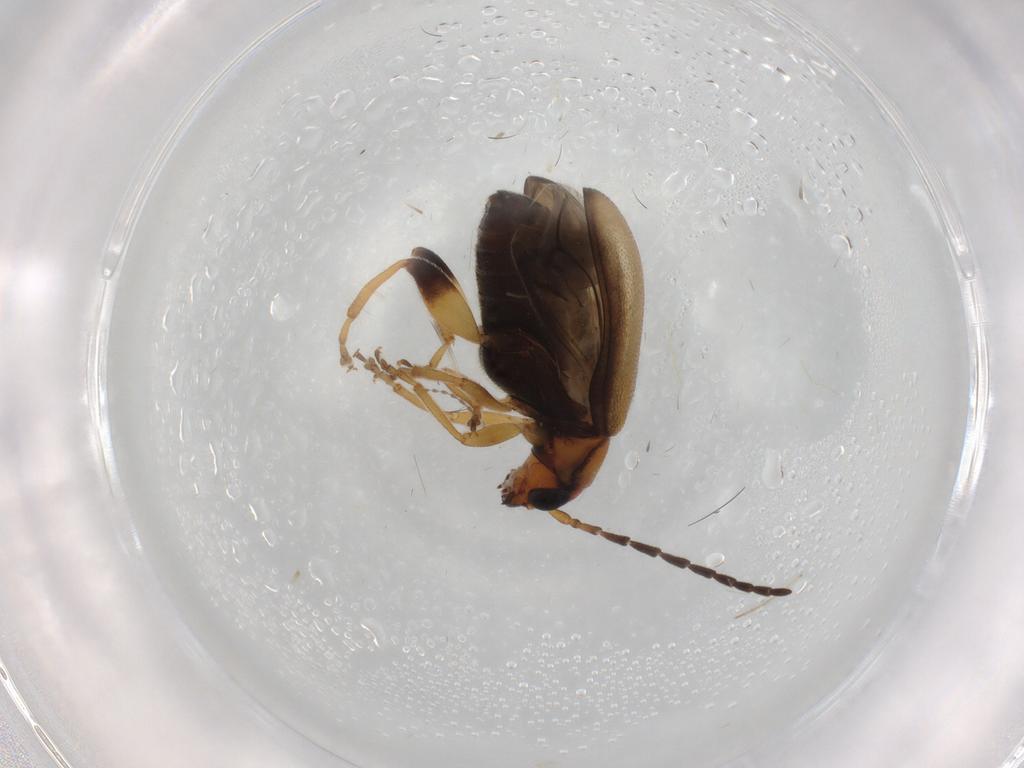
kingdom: Animalia
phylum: Arthropoda
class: Insecta
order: Coleoptera
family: Chrysomelidae
